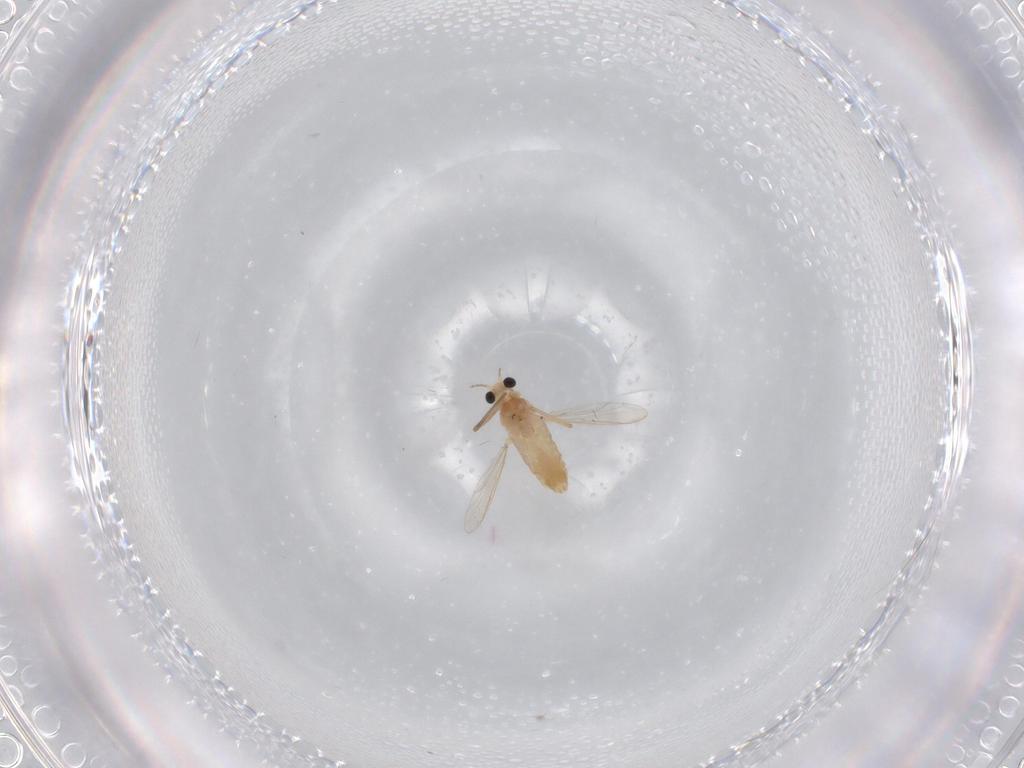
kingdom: Animalia
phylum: Arthropoda
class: Insecta
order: Diptera
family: Chironomidae
